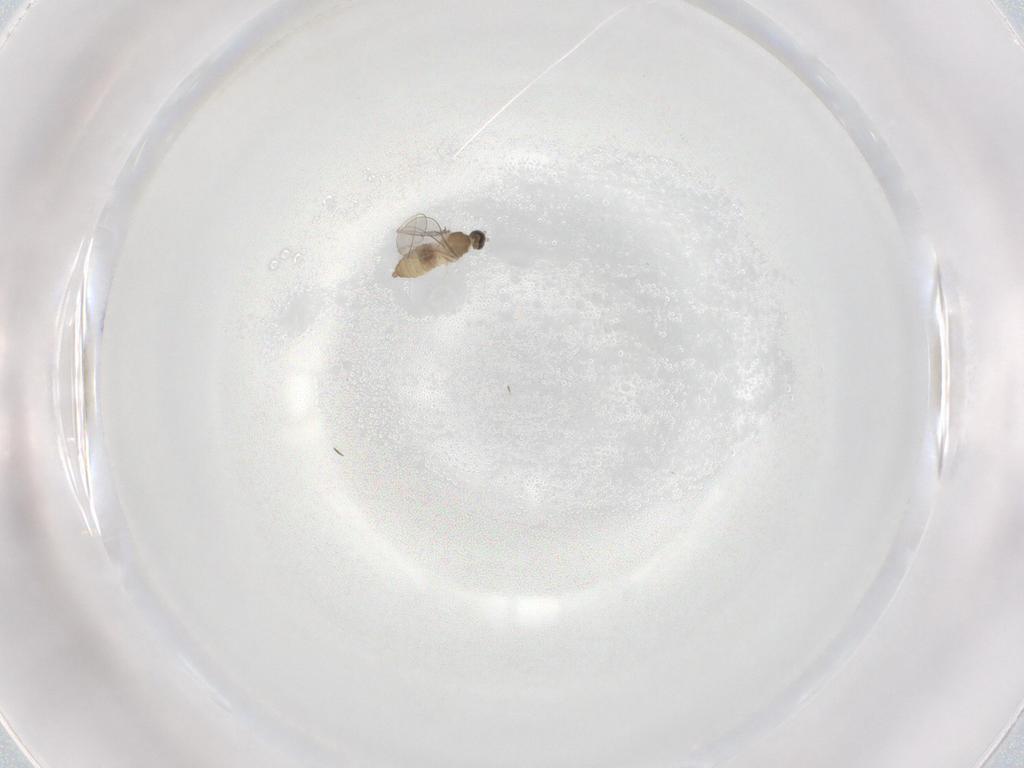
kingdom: Animalia
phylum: Arthropoda
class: Insecta
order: Diptera
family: Cecidomyiidae
